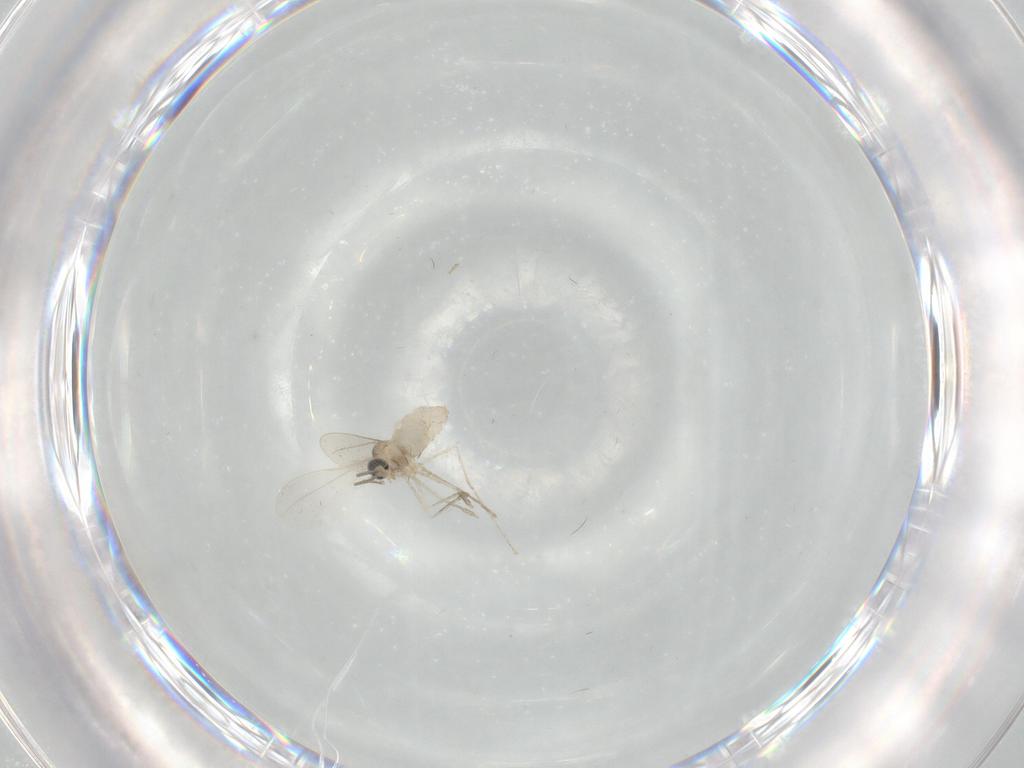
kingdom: Animalia
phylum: Arthropoda
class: Insecta
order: Diptera
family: Cecidomyiidae
